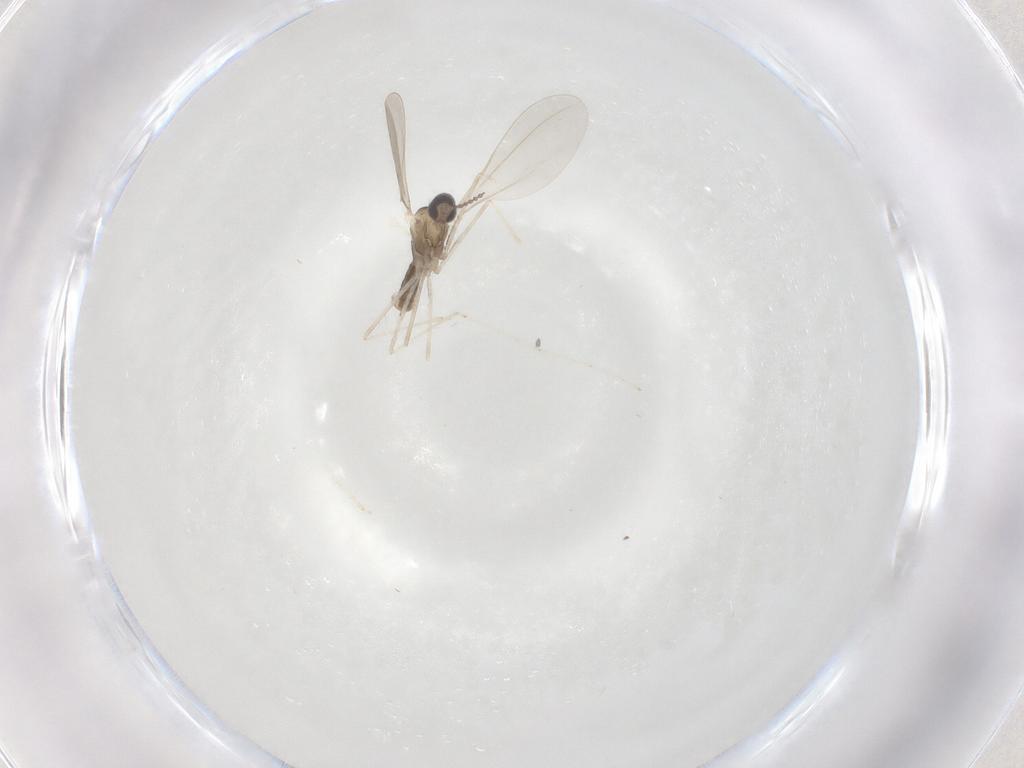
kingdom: Animalia
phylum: Arthropoda
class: Insecta
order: Diptera
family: Cecidomyiidae
